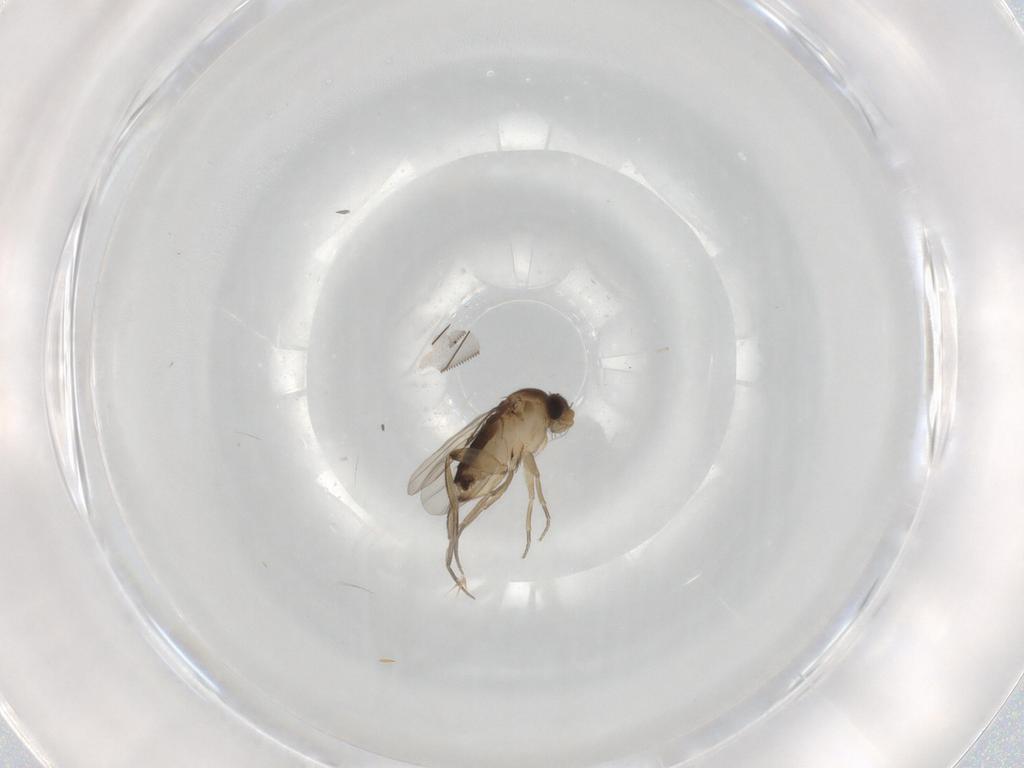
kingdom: Animalia
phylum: Arthropoda
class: Insecta
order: Diptera
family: Phoridae
